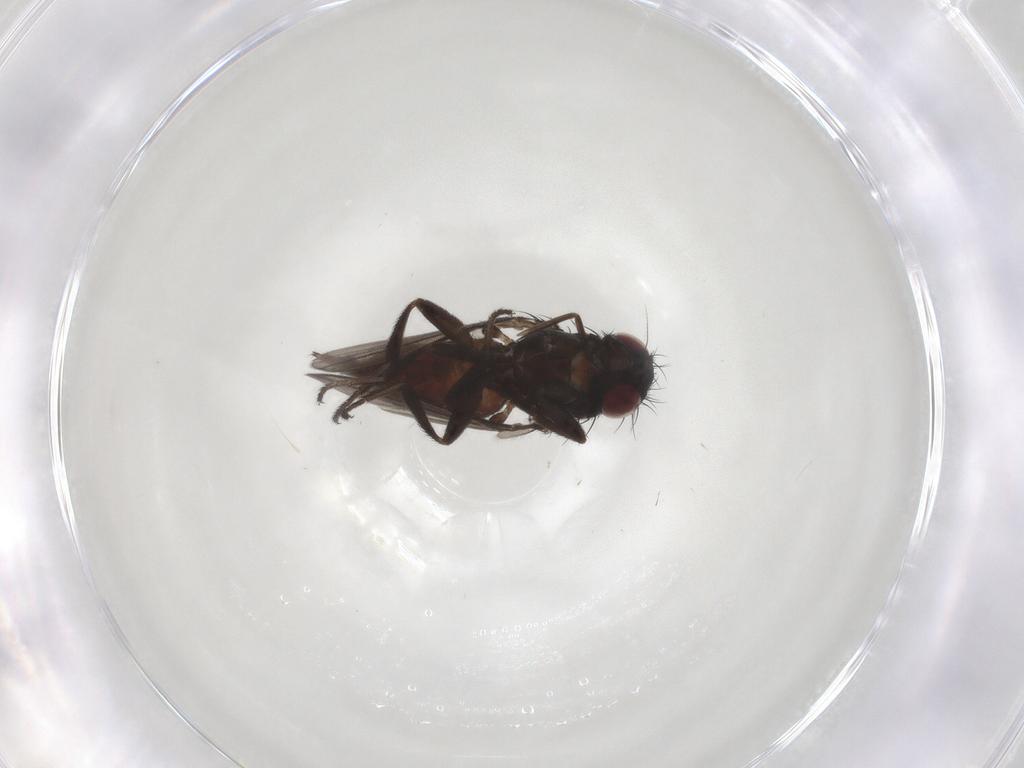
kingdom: Animalia
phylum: Arthropoda
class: Insecta
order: Diptera
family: Milichiidae
